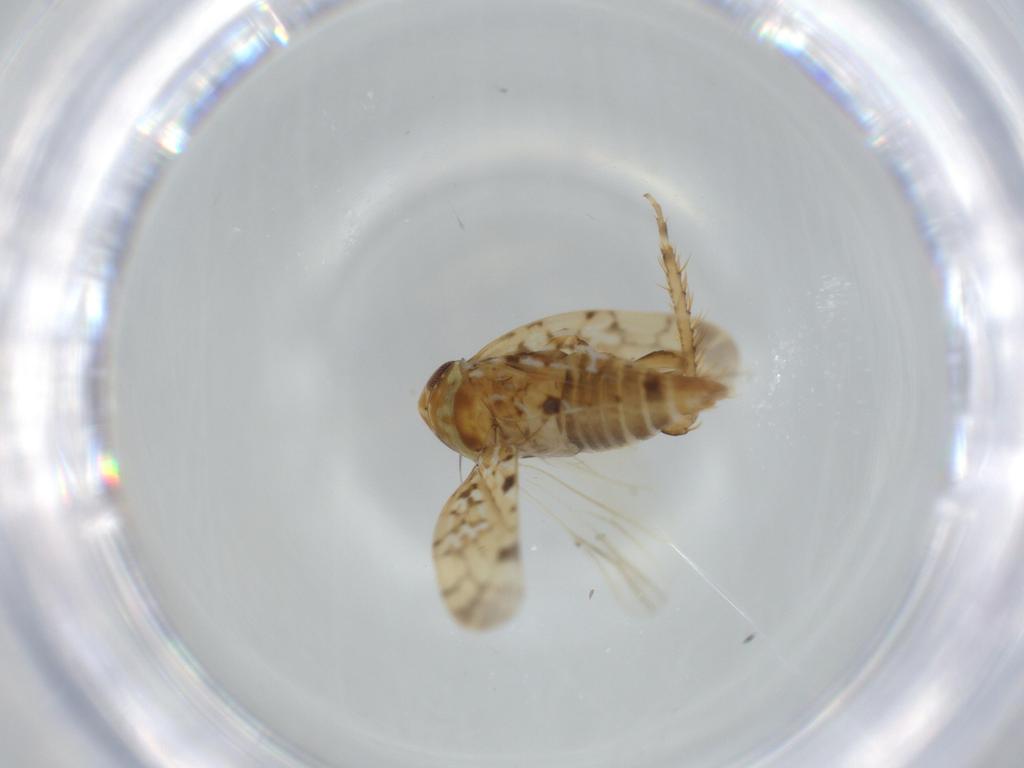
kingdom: Animalia
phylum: Arthropoda
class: Insecta
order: Hemiptera
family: Cicadellidae
